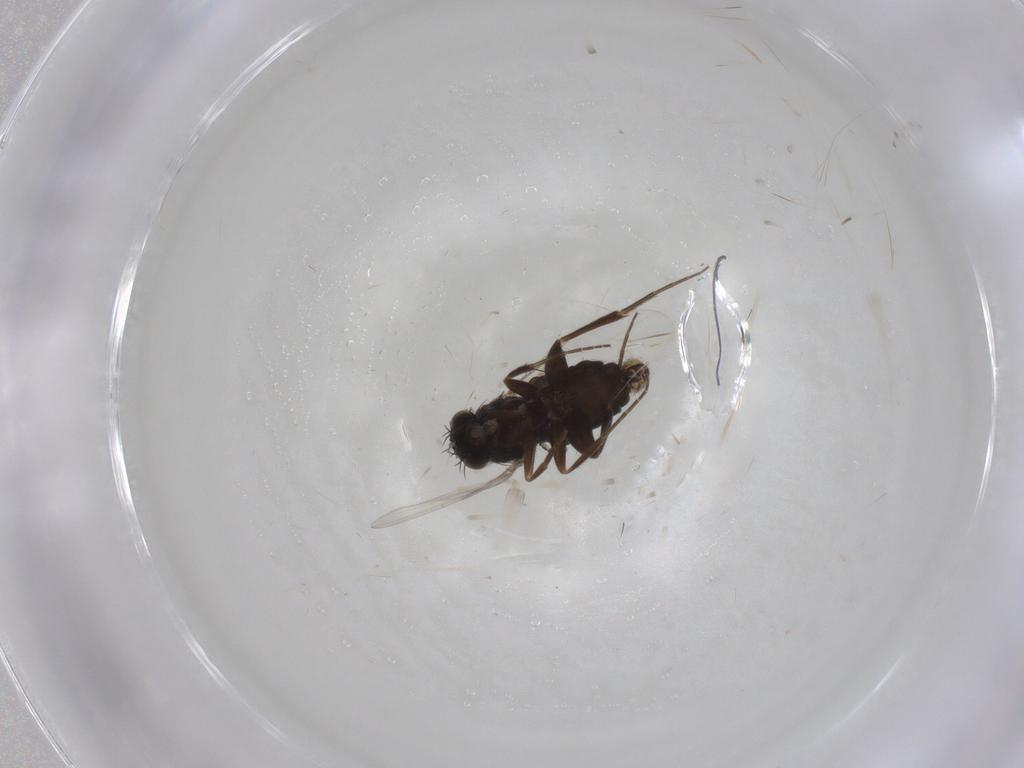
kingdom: Animalia
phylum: Arthropoda
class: Insecta
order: Diptera
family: Phoridae
